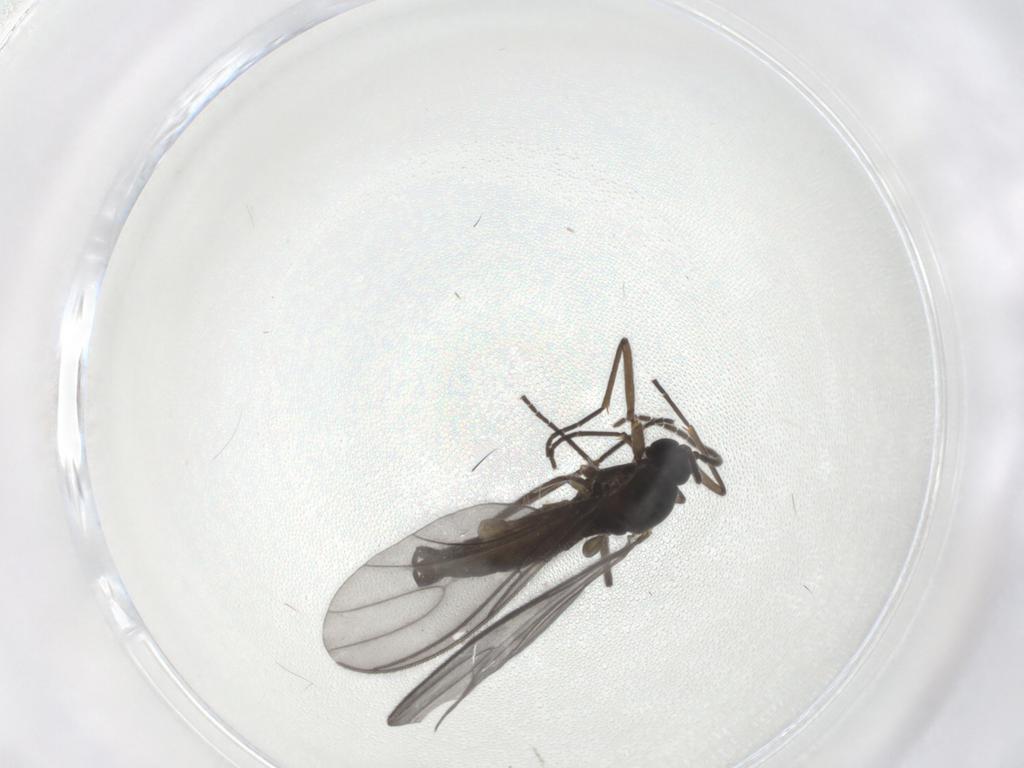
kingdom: Animalia
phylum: Arthropoda
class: Insecta
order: Diptera
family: Sciaridae
